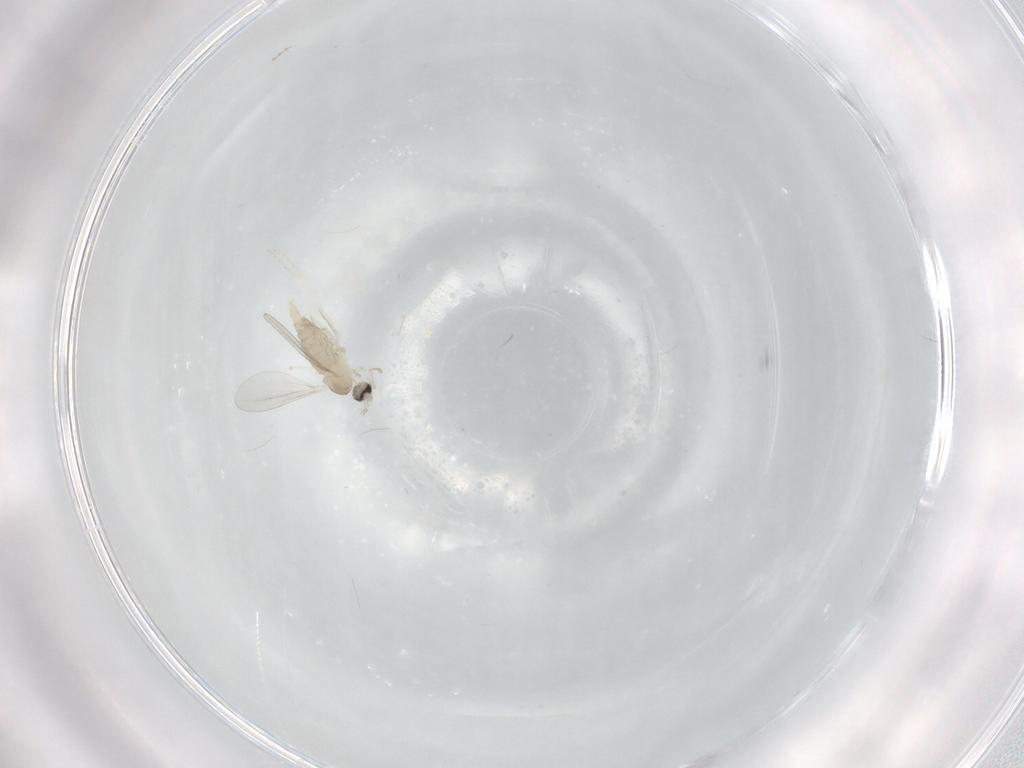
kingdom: Animalia
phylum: Arthropoda
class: Insecta
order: Diptera
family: Cecidomyiidae
